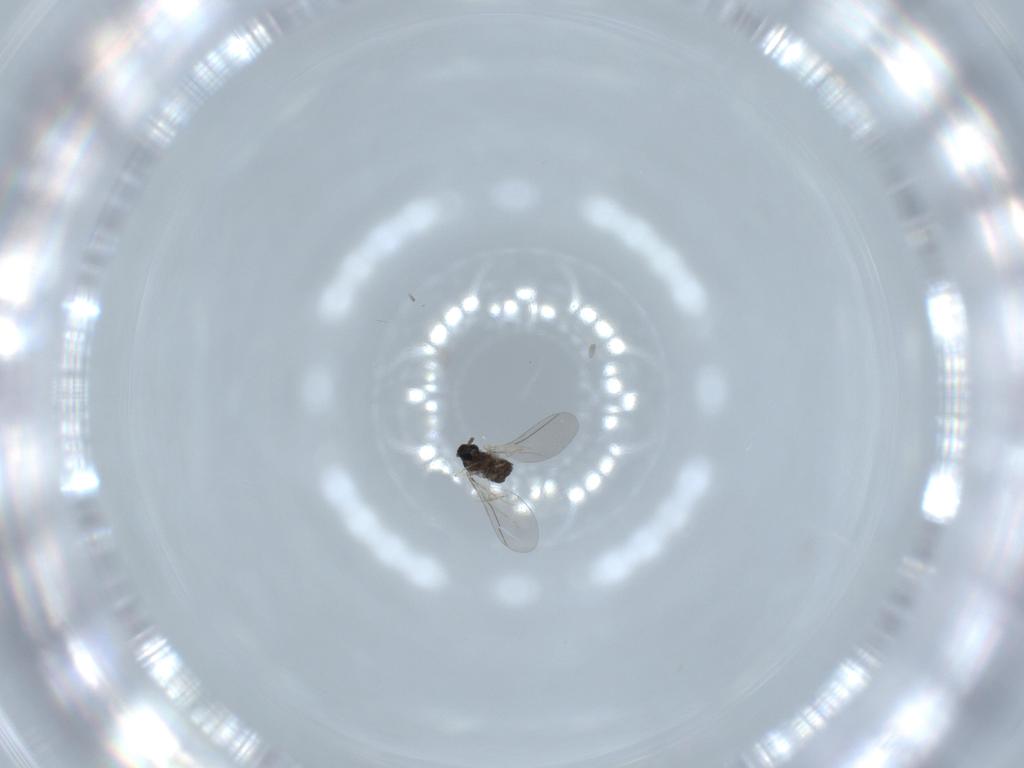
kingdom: Animalia
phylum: Arthropoda
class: Insecta
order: Diptera
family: Cecidomyiidae
